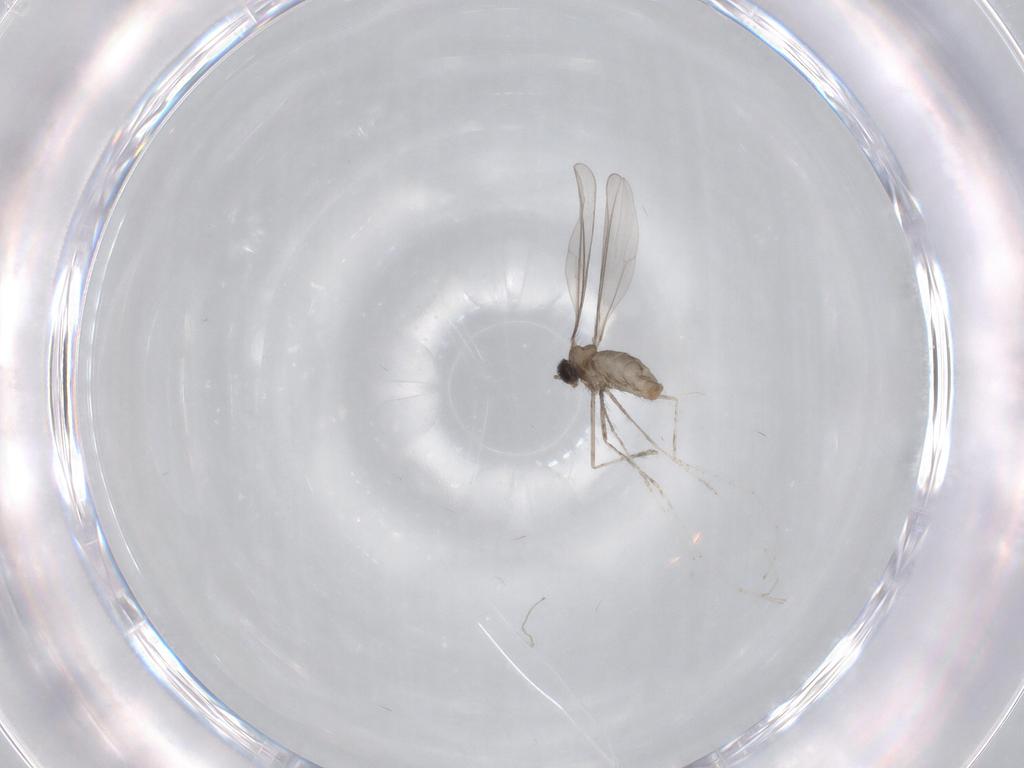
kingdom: Animalia
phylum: Arthropoda
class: Insecta
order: Diptera
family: Cecidomyiidae
